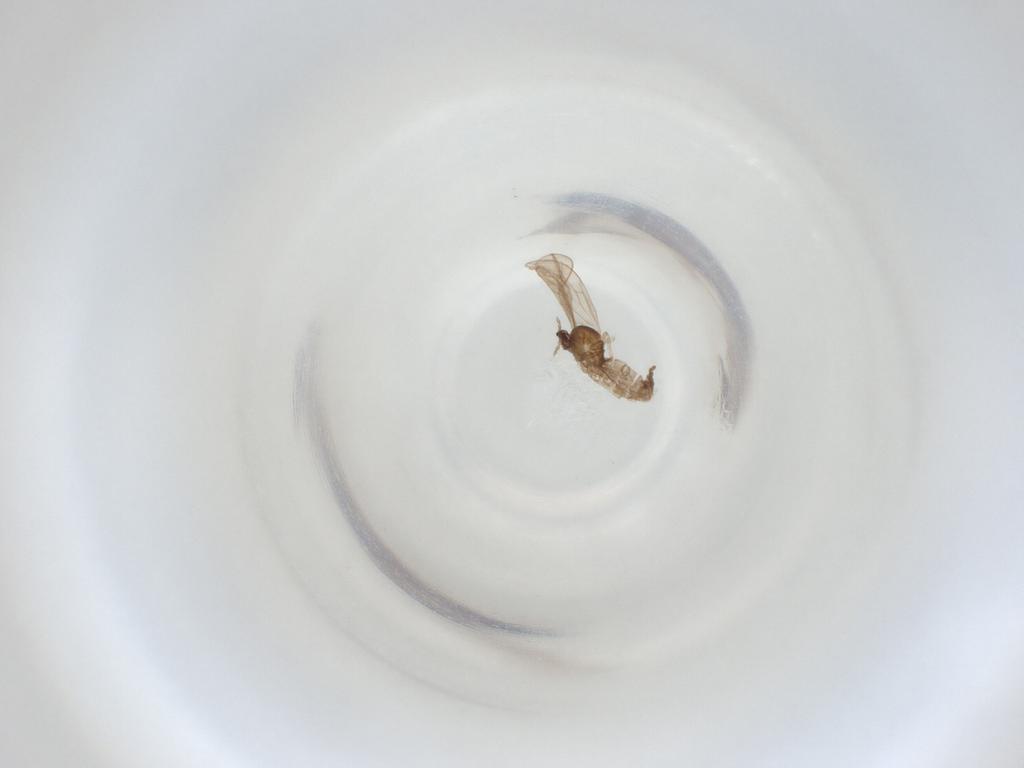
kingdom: Animalia
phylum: Arthropoda
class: Insecta
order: Diptera
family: Cecidomyiidae
